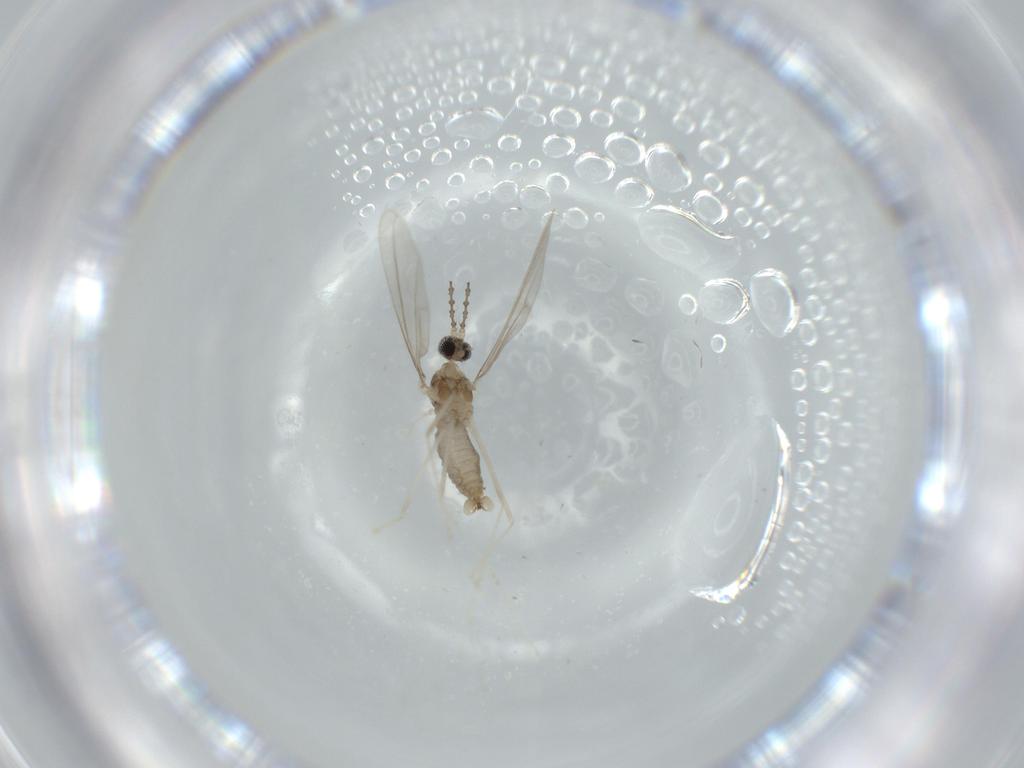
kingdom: Animalia
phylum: Arthropoda
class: Insecta
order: Diptera
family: Cecidomyiidae
